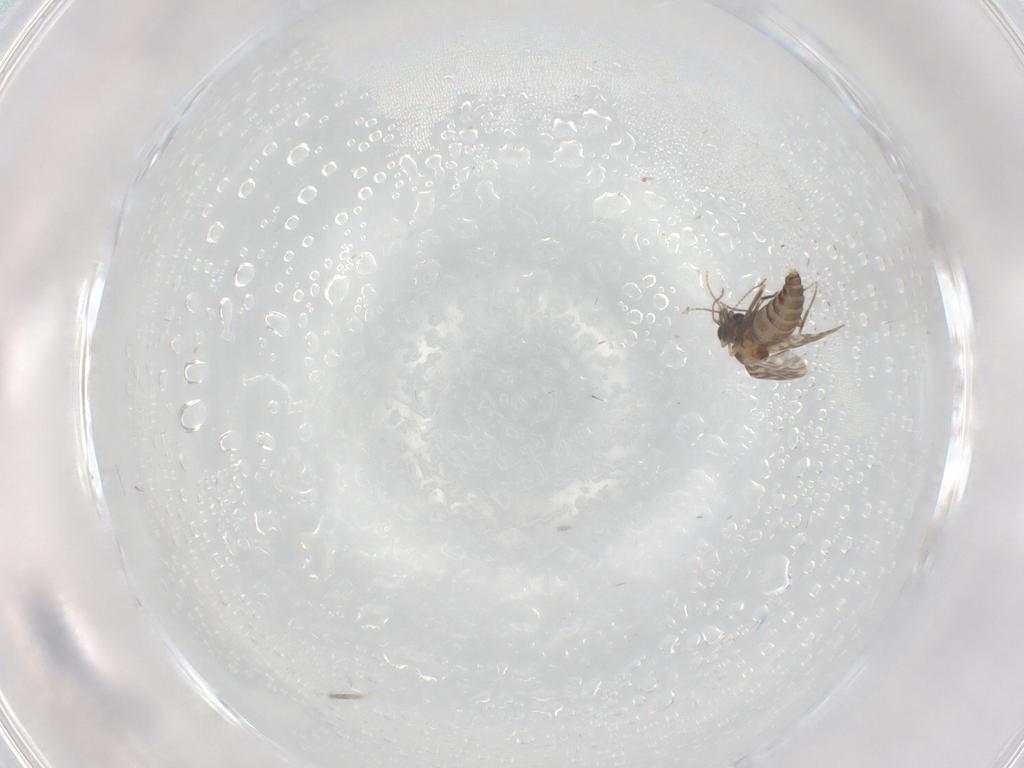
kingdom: Animalia
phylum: Arthropoda
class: Insecta
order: Diptera
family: Ceratopogonidae
